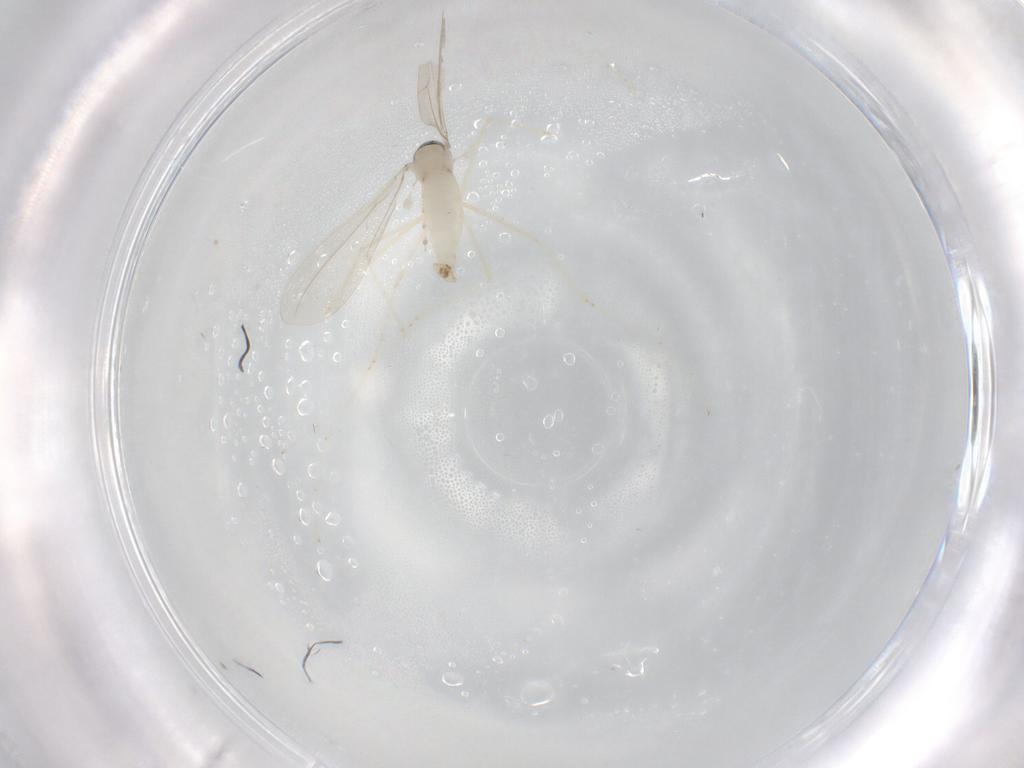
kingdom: Animalia
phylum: Arthropoda
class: Insecta
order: Diptera
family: Cecidomyiidae
